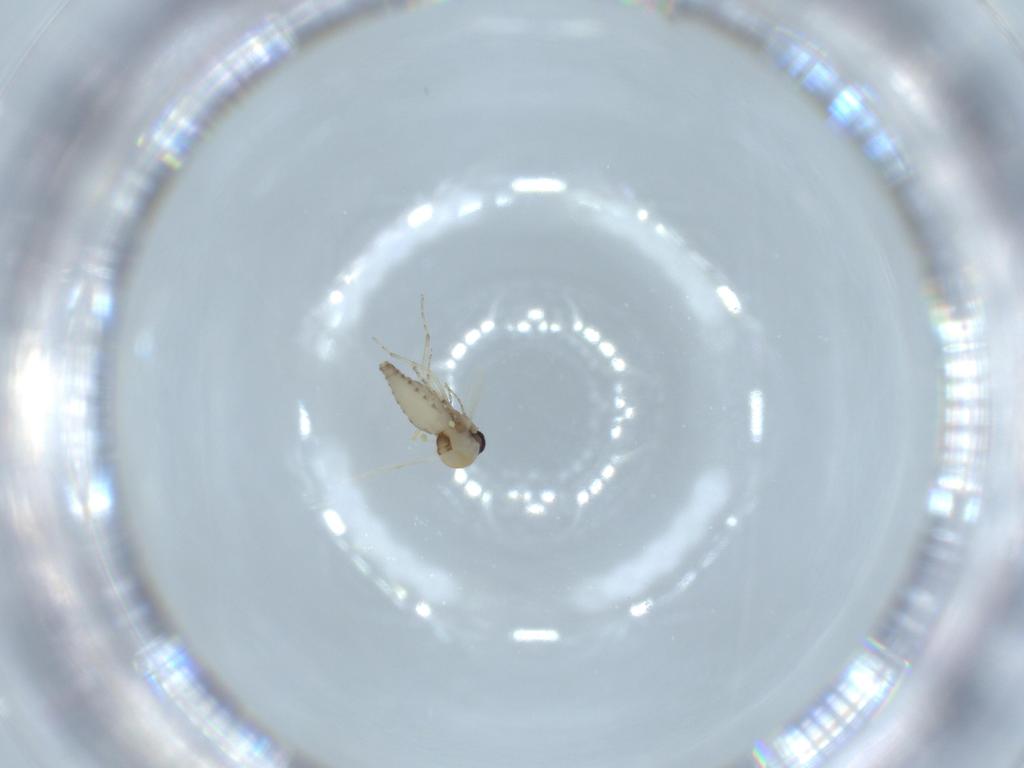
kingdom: Animalia
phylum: Arthropoda
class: Insecta
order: Diptera
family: Ceratopogonidae
